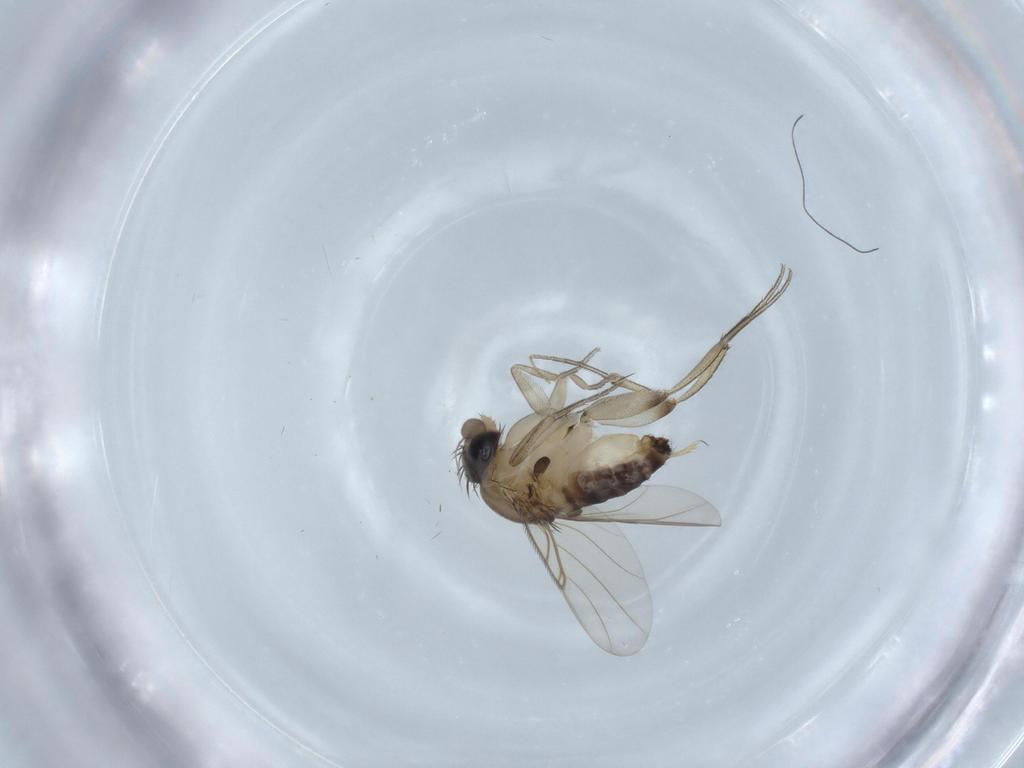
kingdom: Animalia
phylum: Arthropoda
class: Insecta
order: Diptera
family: Phoridae
